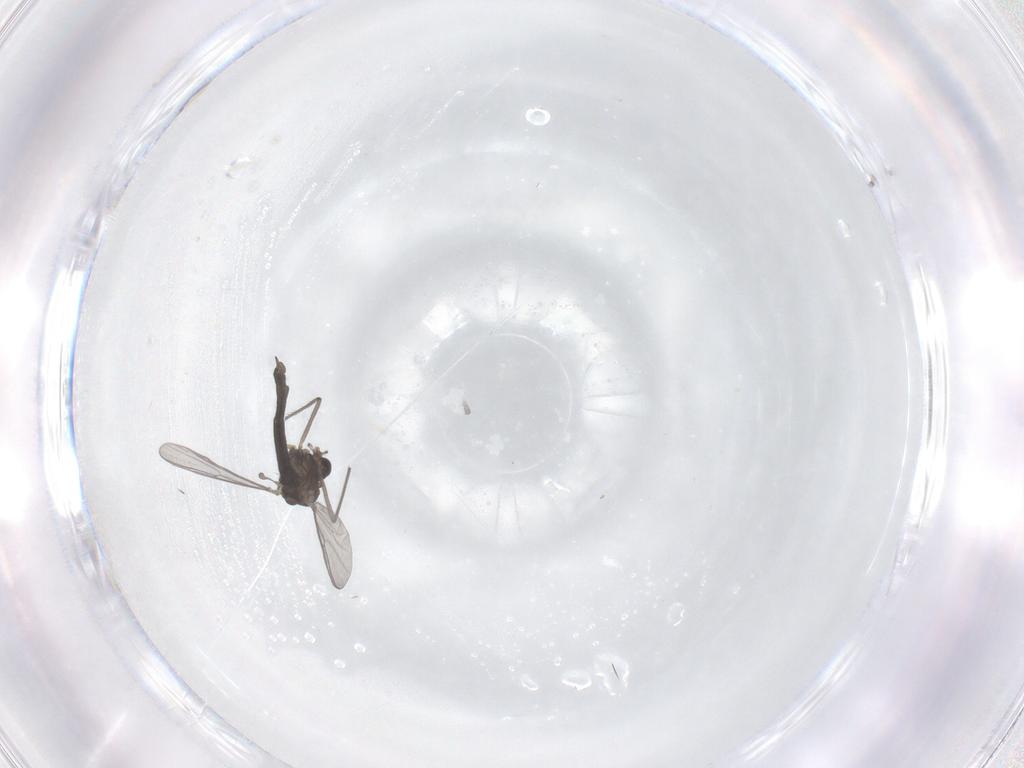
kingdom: Animalia
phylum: Arthropoda
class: Insecta
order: Diptera
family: Chironomidae
